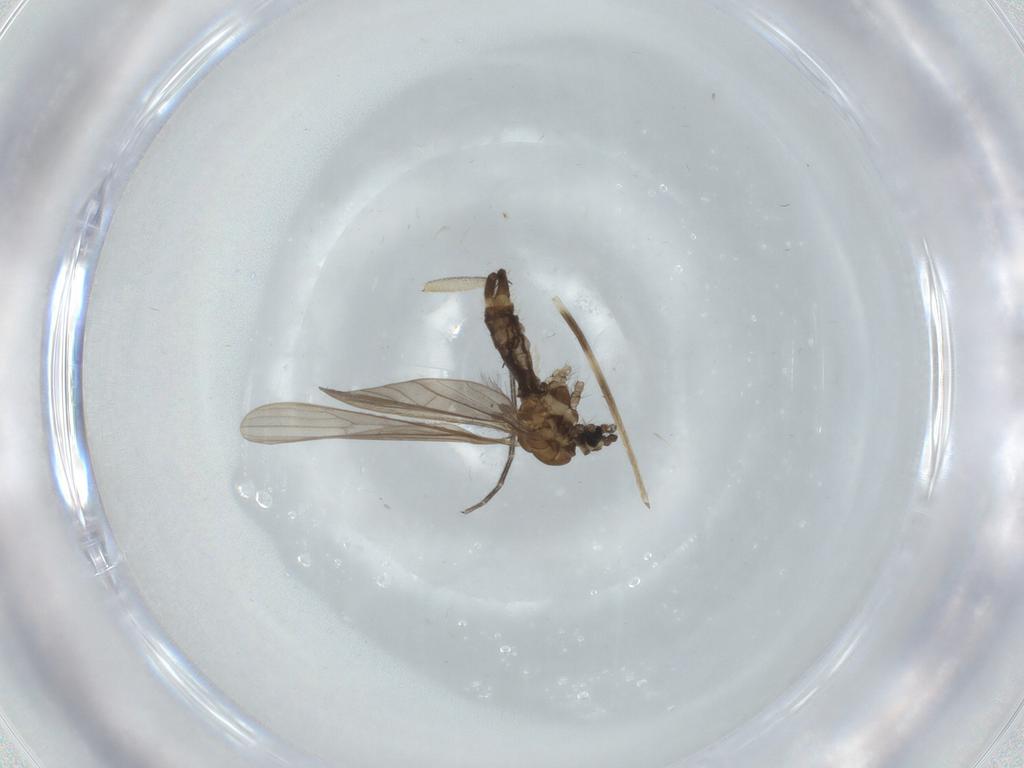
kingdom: Animalia
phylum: Arthropoda
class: Insecta
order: Diptera
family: Limoniidae
